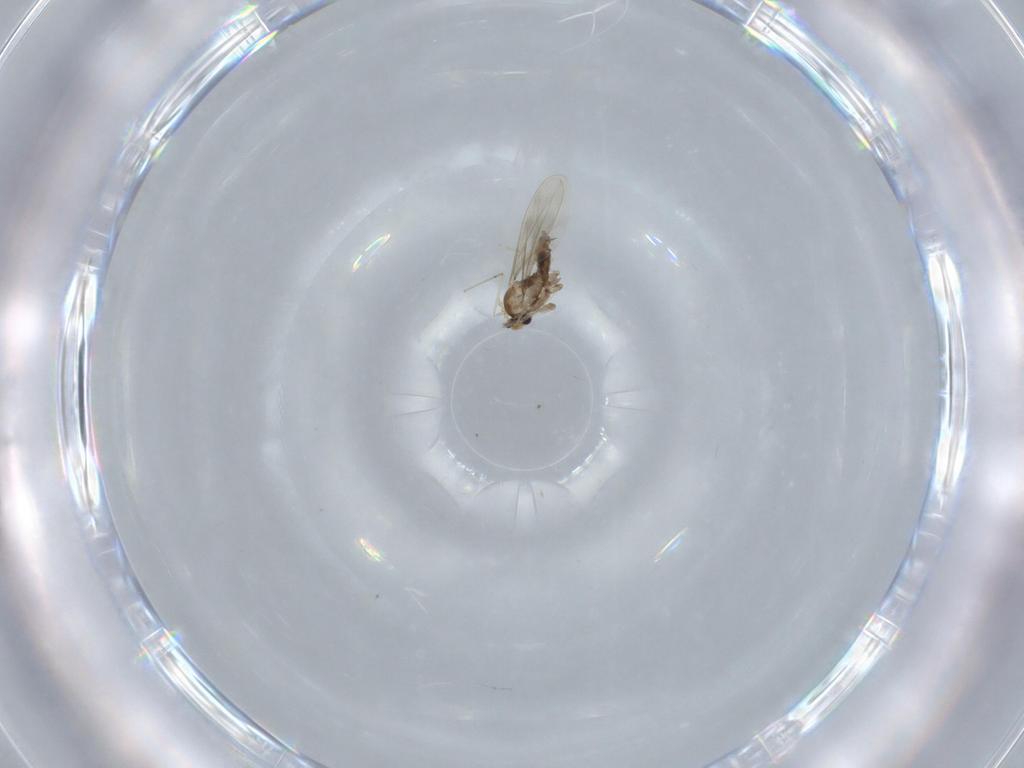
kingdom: Animalia
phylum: Arthropoda
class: Insecta
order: Diptera
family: Cecidomyiidae
